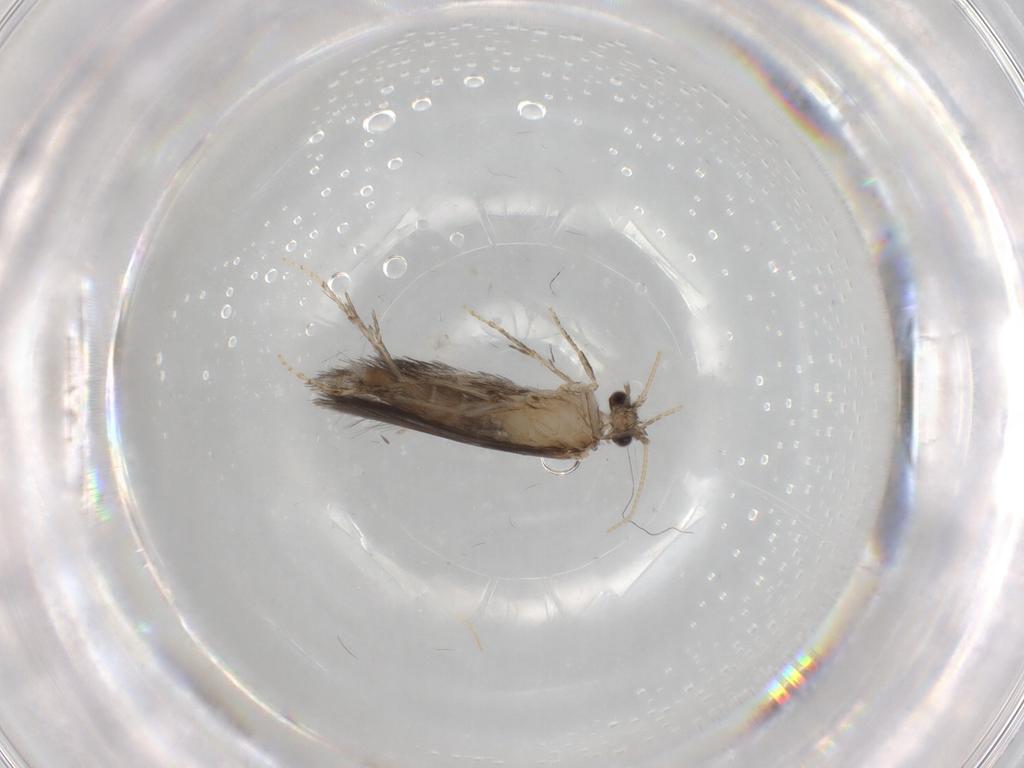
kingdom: Animalia
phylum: Arthropoda
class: Insecta
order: Trichoptera
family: Hydroptilidae
